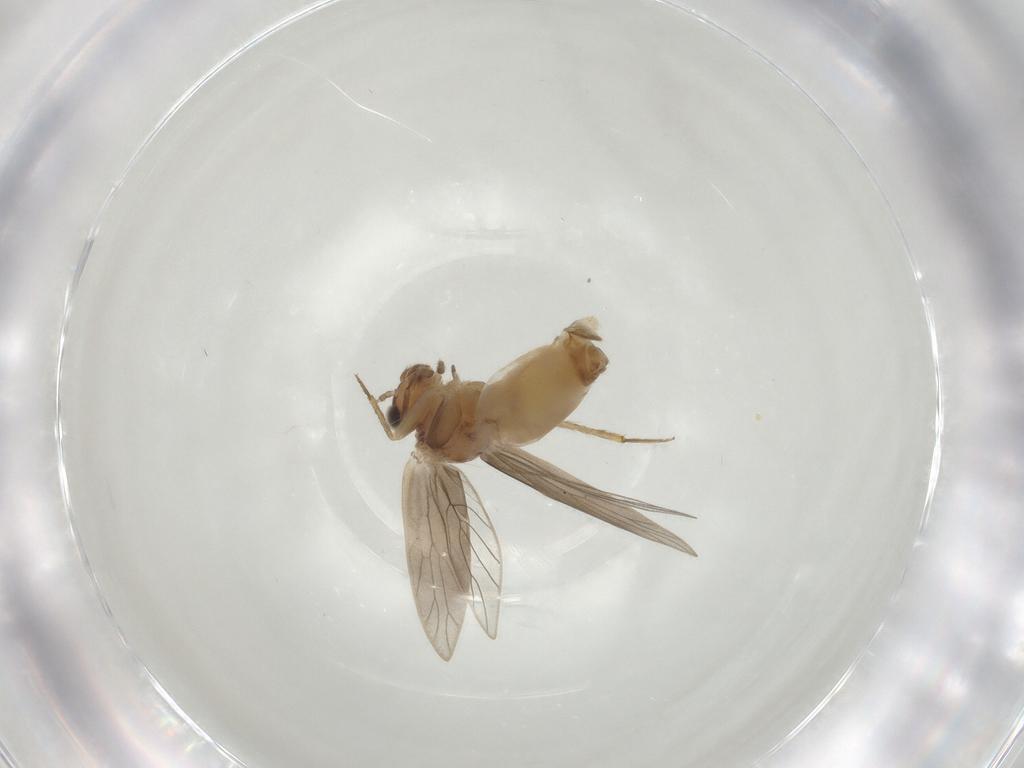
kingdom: Animalia
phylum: Arthropoda
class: Insecta
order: Psocodea
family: Lepidopsocidae
